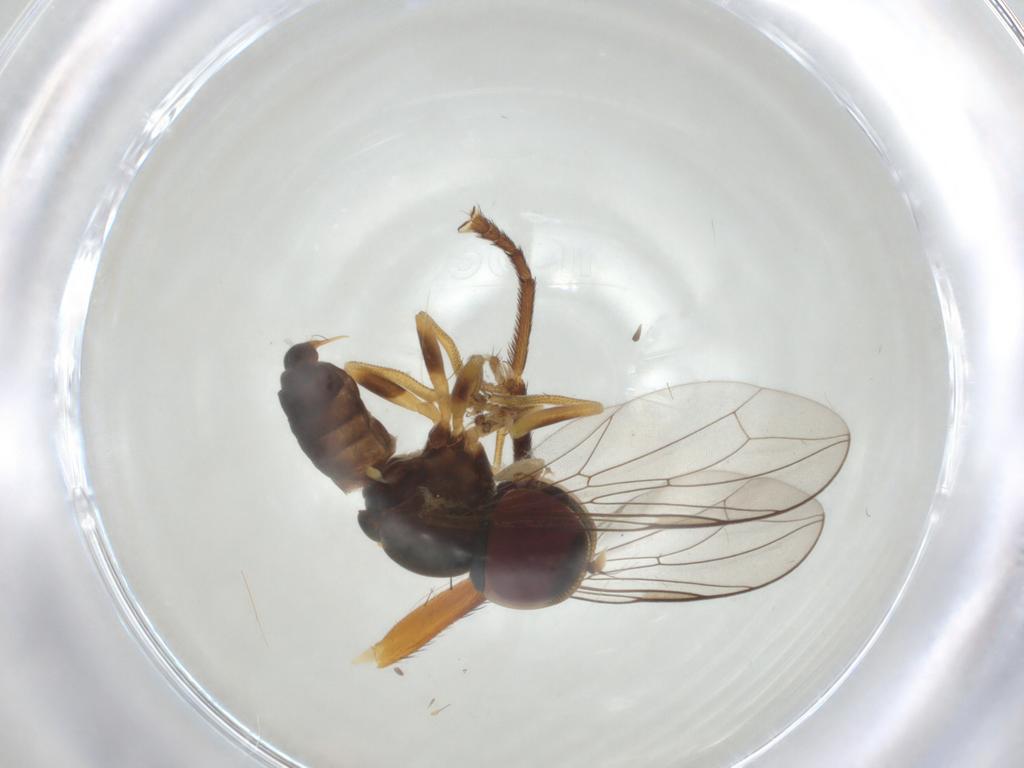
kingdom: Animalia
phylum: Arthropoda
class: Insecta
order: Diptera
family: Tephritidae
